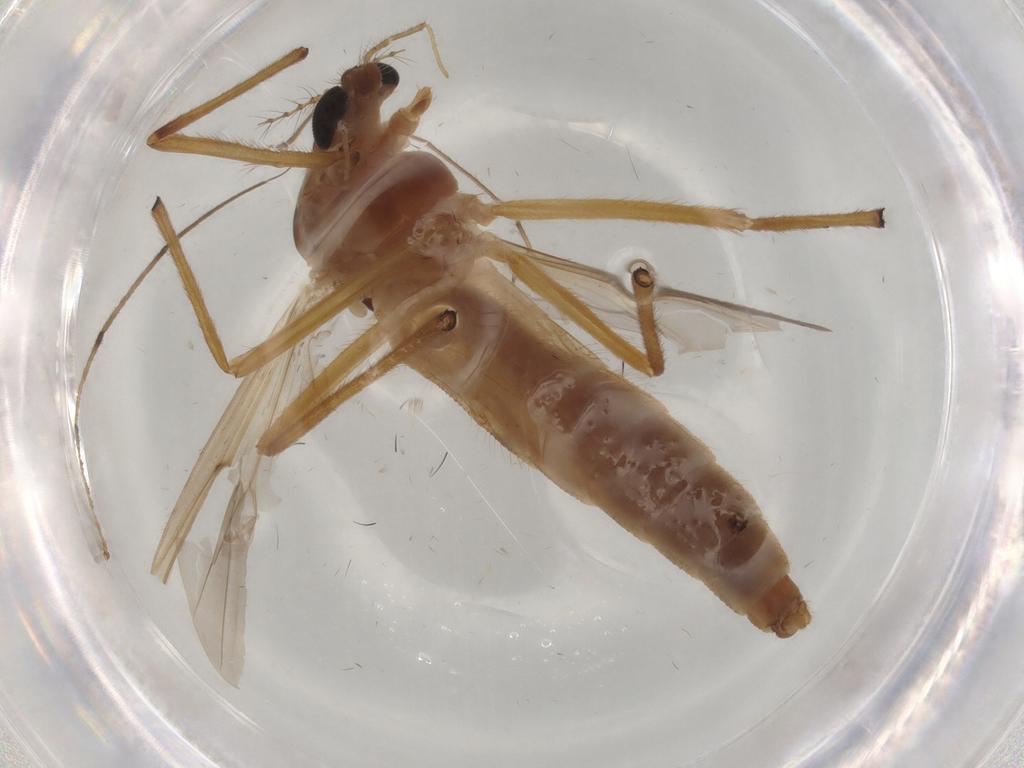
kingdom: Animalia
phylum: Arthropoda
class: Insecta
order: Diptera
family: Chironomidae
